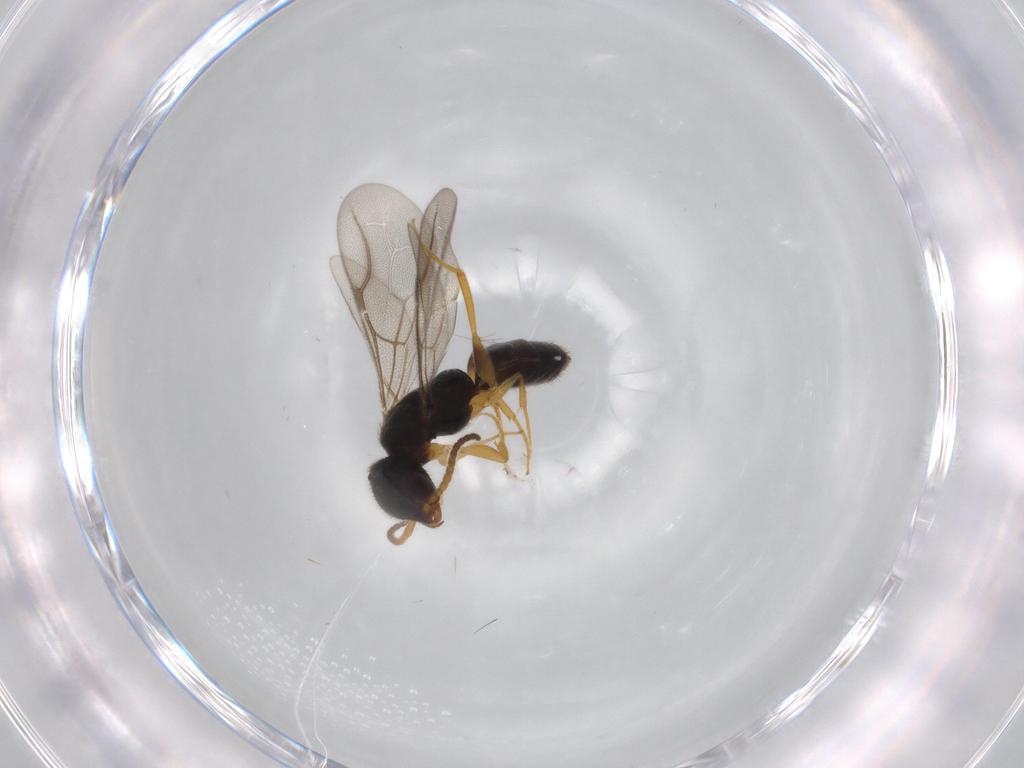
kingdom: Animalia
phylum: Arthropoda
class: Insecta
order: Hymenoptera
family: Bethylidae
